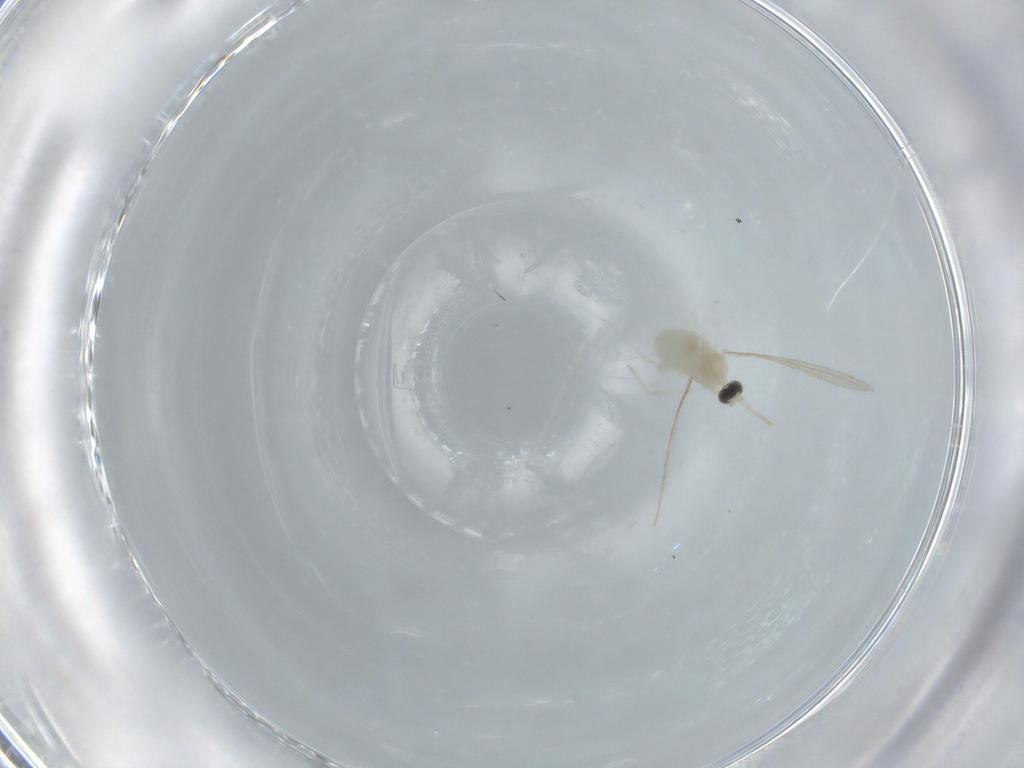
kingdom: Animalia
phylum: Arthropoda
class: Insecta
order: Diptera
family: Cecidomyiidae
